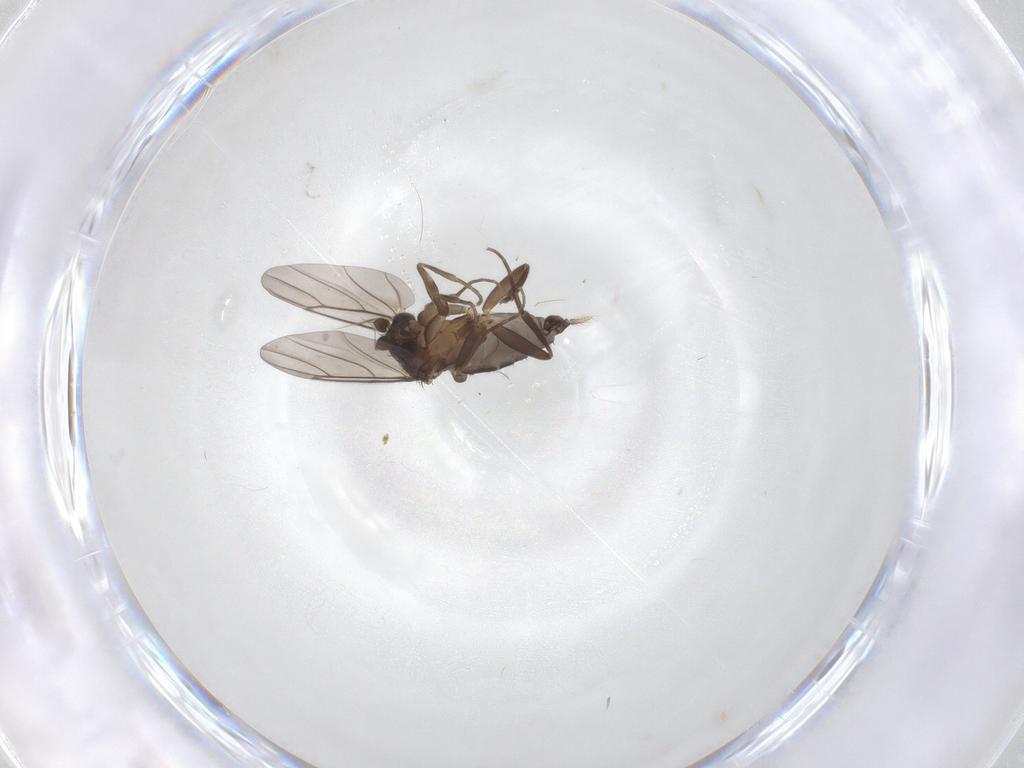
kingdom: Animalia
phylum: Arthropoda
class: Insecta
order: Diptera
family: Phoridae
